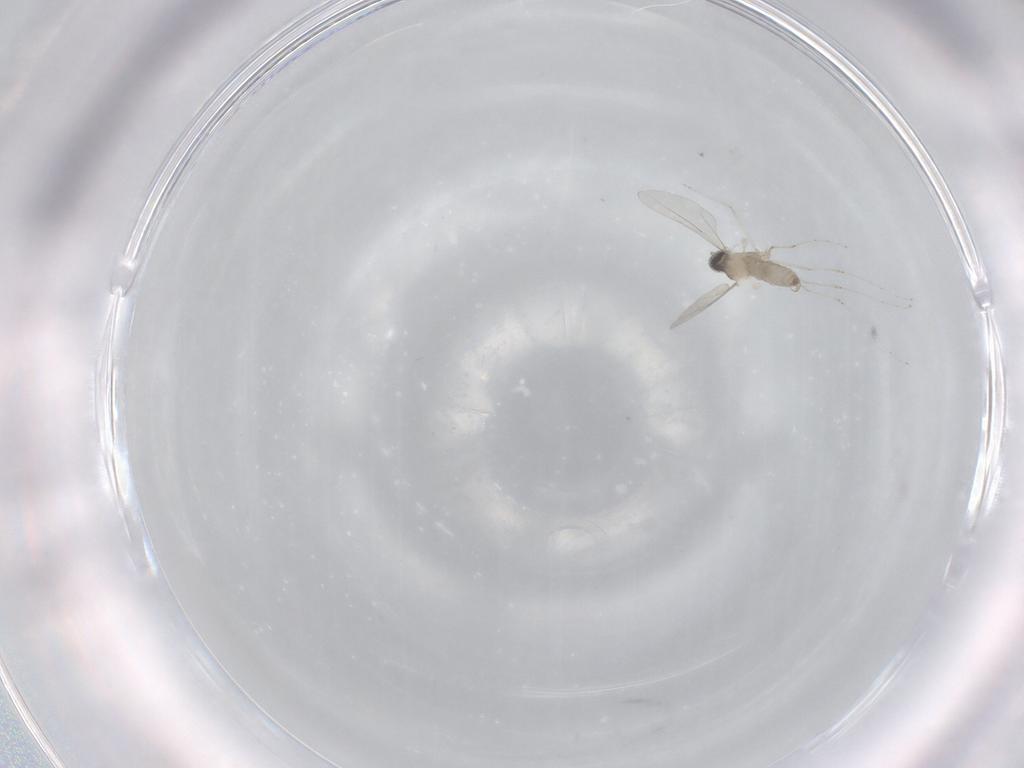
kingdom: Animalia
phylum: Arthropoda
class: Insecta
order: Diptera
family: Cecidomyiidae
